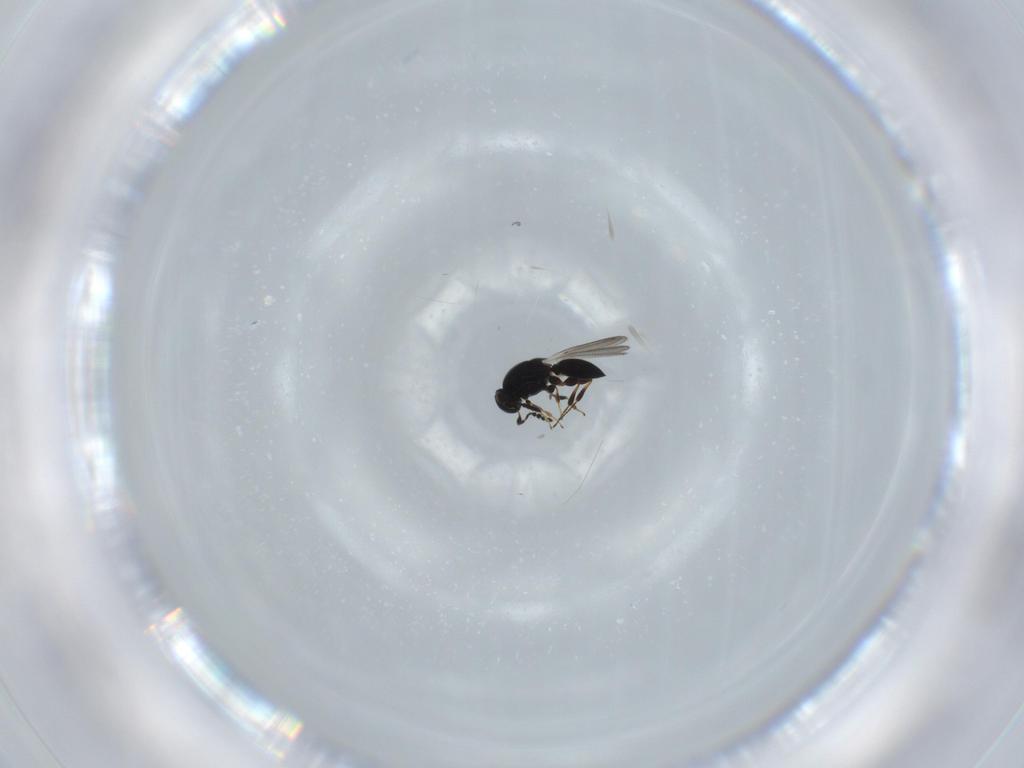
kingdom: Animalia
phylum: Arthropoda
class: Insecta
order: Hymenoptera
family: Platygastridae
